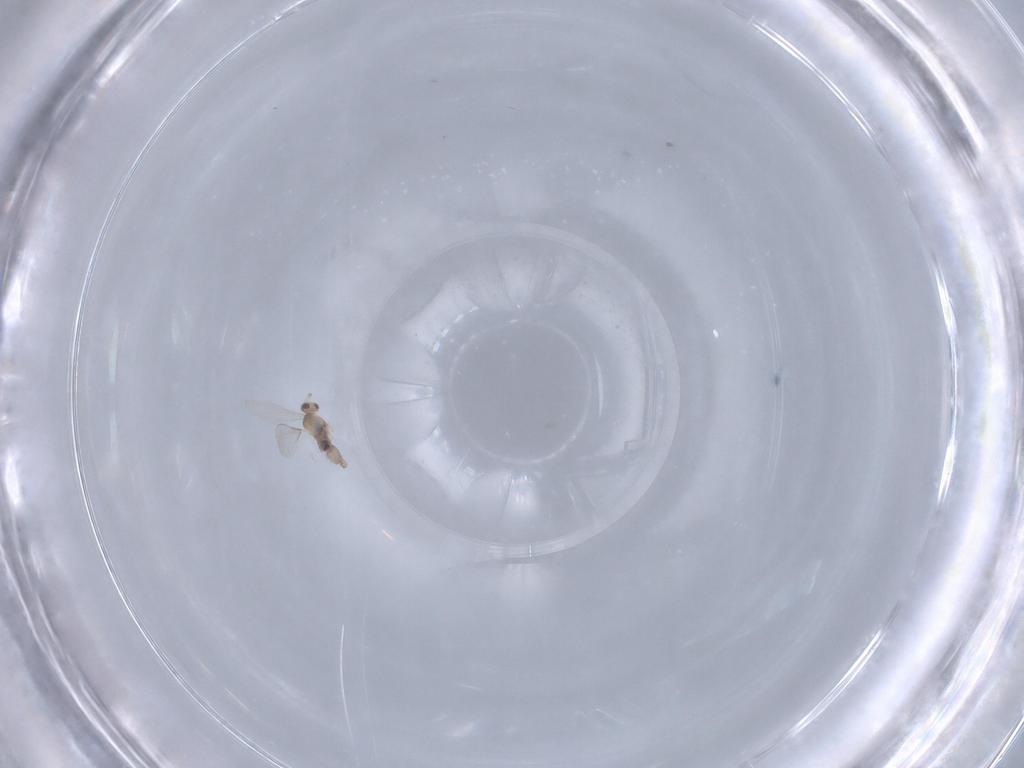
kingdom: Animalia
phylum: Arthropoda
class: Insecta
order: Diptera
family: Cecidomyiidae
